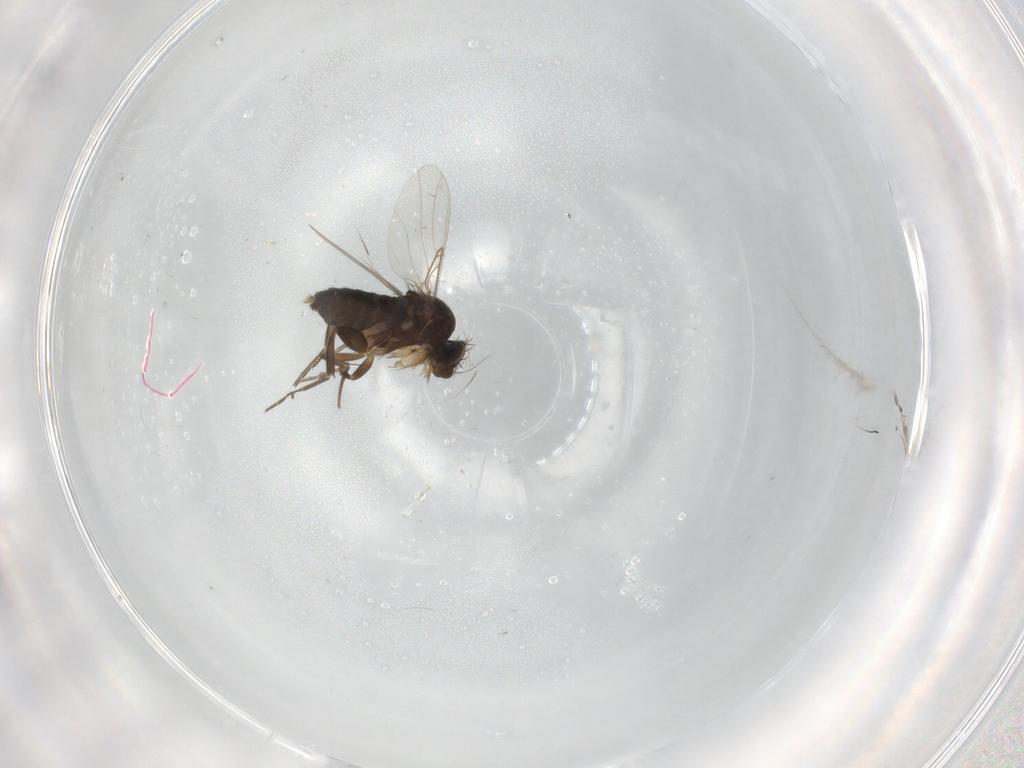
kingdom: Animalia
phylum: Arthropoda
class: Insecta
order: Diptera
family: Phoridae
